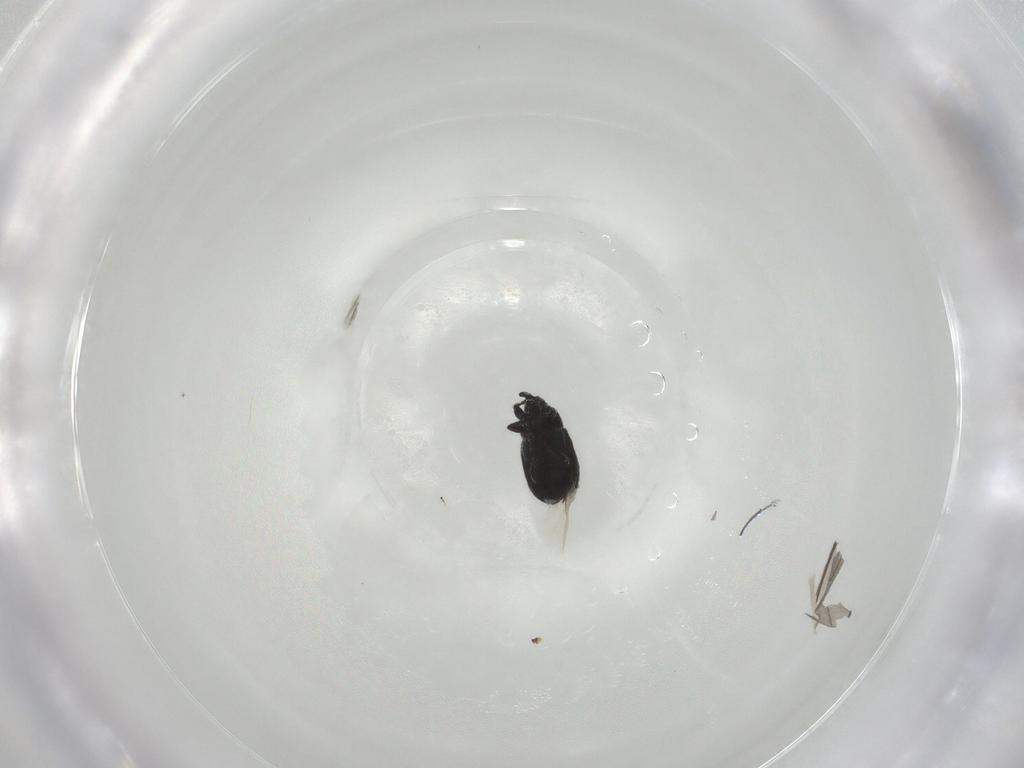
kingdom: Animalia
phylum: Arthropoda
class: Insecta
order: Coleoptera
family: Curculionidae
